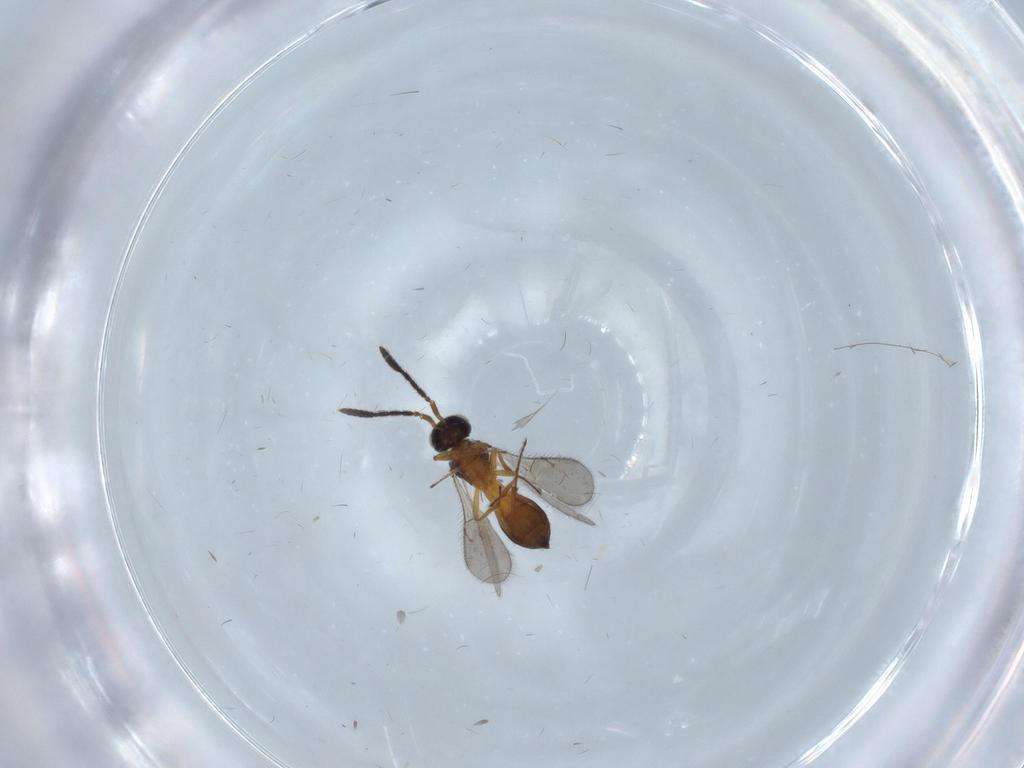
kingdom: Animalia
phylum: Arthropoda
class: Insecta
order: Hymenoptera
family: Scelionidae
